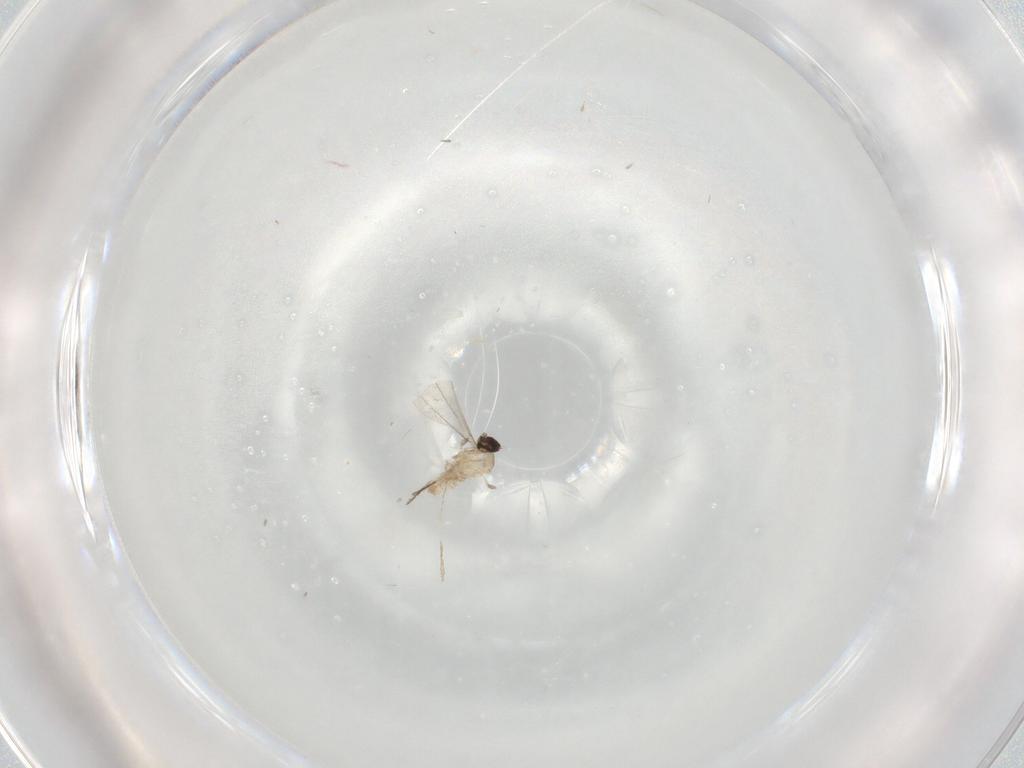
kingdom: Animalia
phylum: Arthropoda
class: Insecta
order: Diptera
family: Cecidomyiidae
